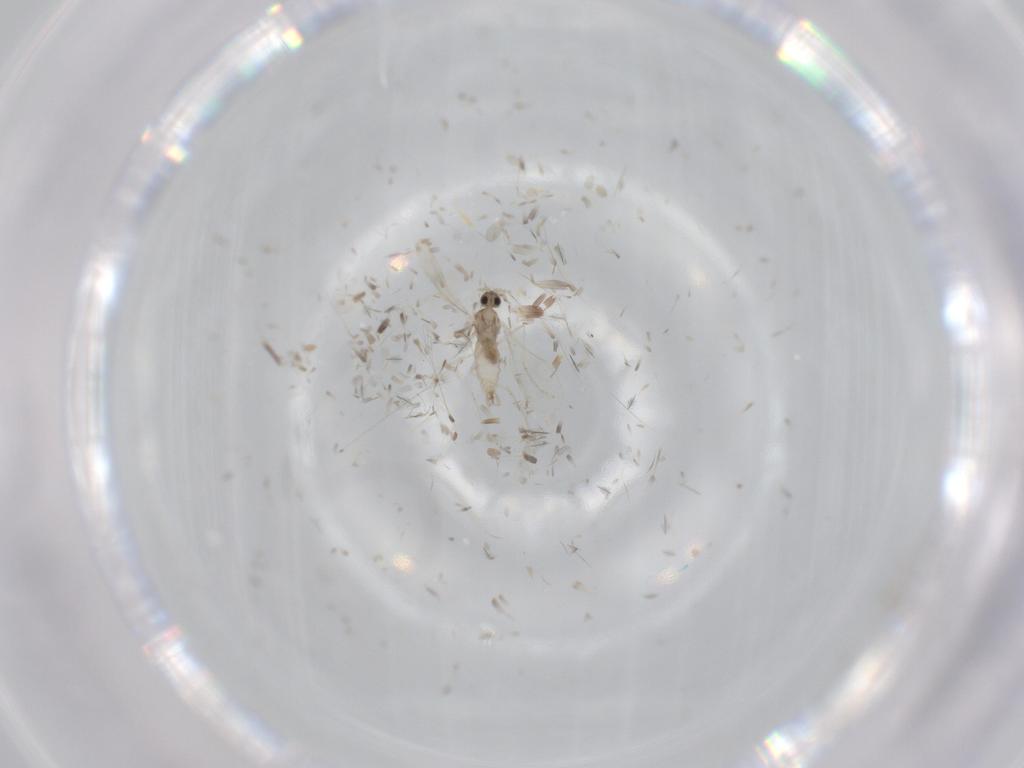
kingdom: Animalia
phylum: Arthropoda
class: Insecta
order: Diptera
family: Cecidomyiidae
